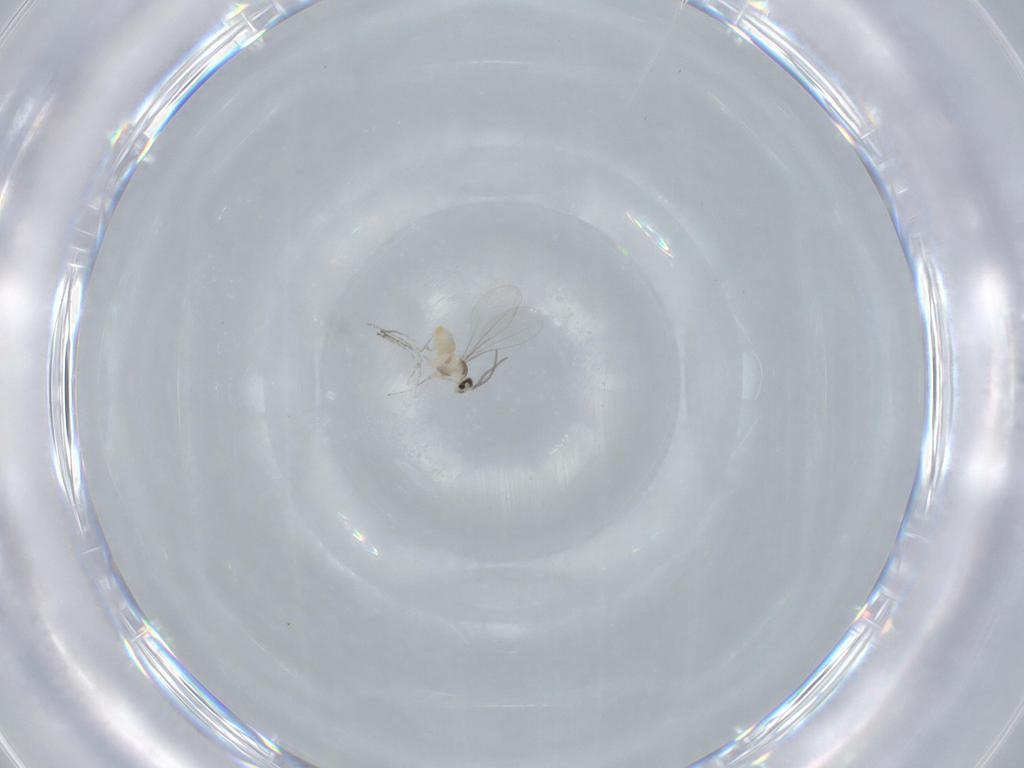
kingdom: Animalia
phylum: Arthropoda
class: Insecta
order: Diptera
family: Cecidomyiidae
